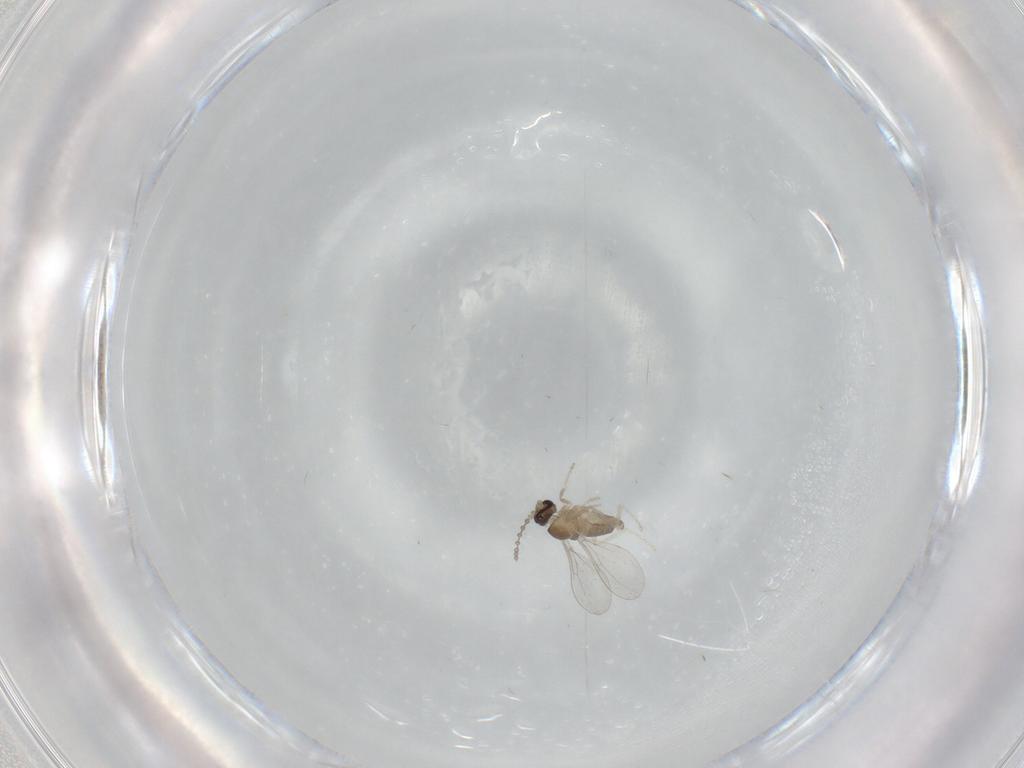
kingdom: Animalia
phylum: Arthropoda
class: Insecta
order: Diptera
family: Cecidomyiidae
